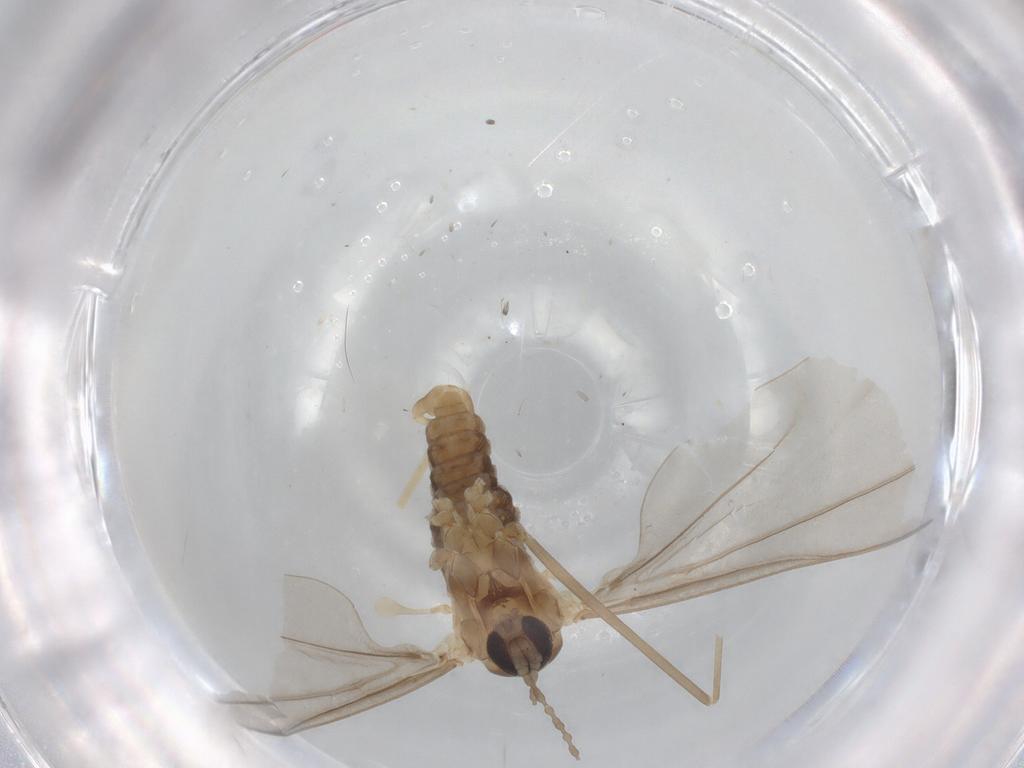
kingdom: Animalia
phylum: Arthropoda
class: Insecta
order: Diptera
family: Cecidomyiidae
